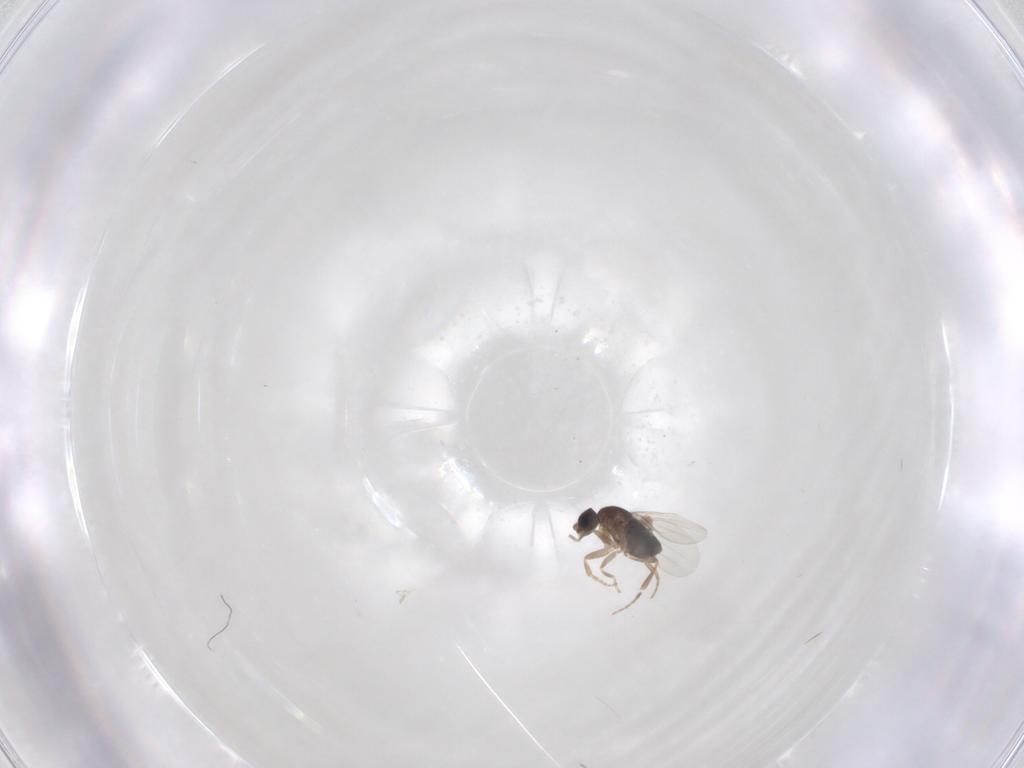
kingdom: Animalia
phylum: Arthropoda
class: Insecta
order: Diptera
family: Phoridae
